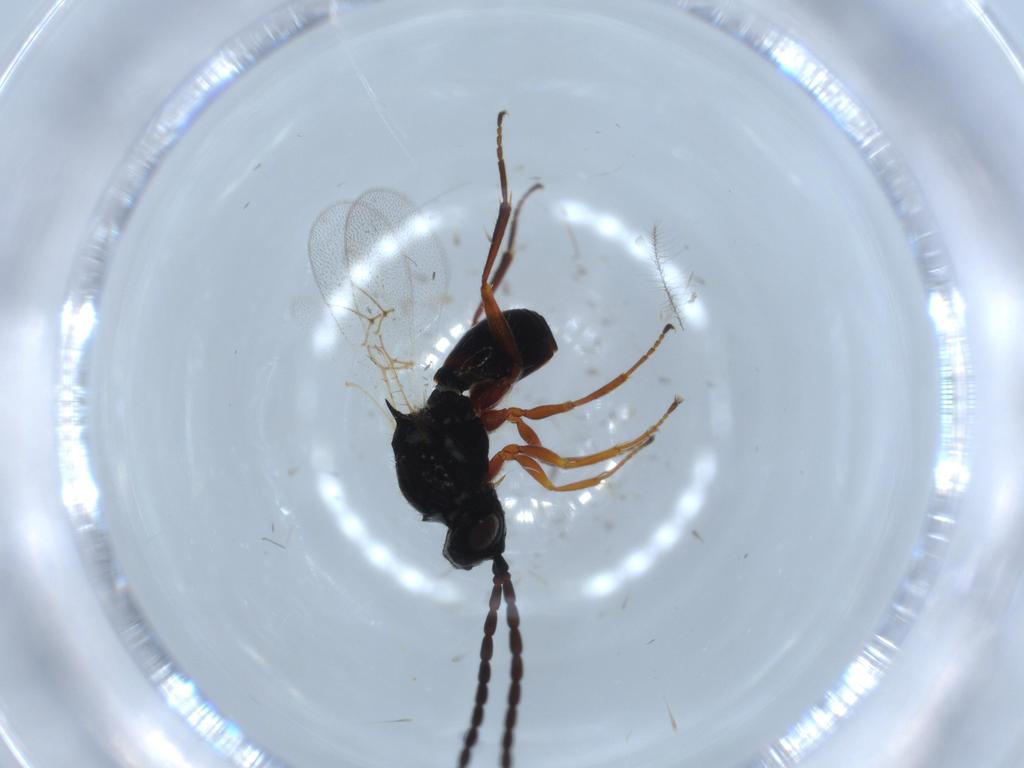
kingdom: Animalia
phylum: Arthropoda
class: Insecta
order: Hymenoptera
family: Figitidae
